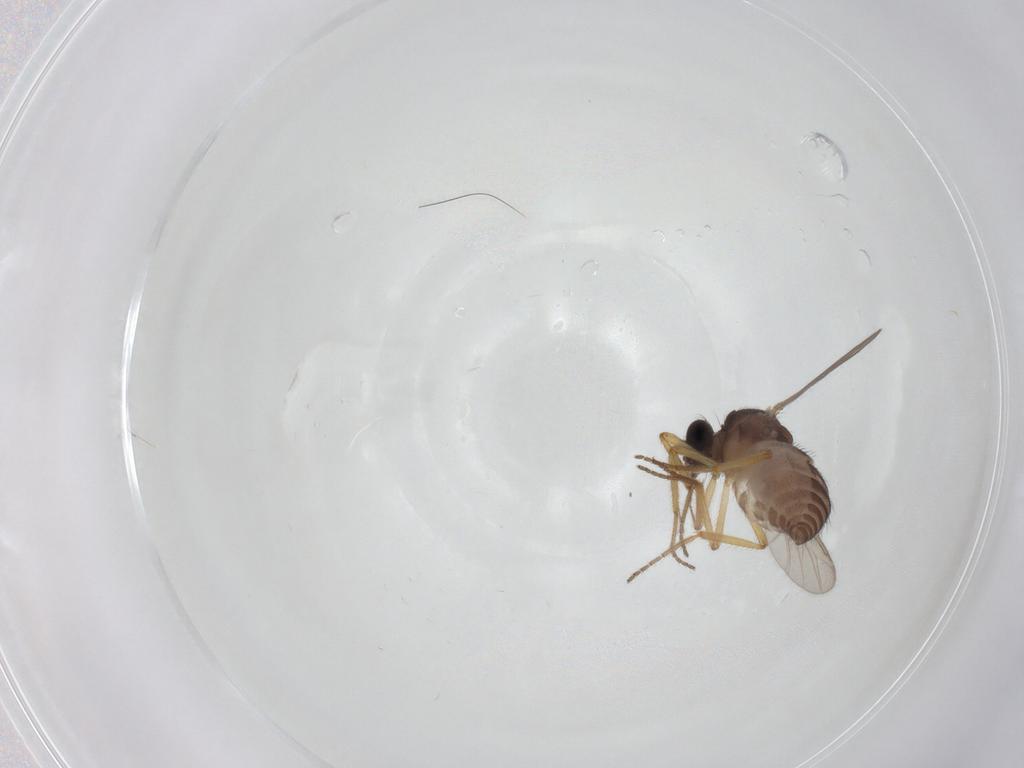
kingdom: Animalia
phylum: Arthropoda
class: Insecta
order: Diptera
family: Ceratopogonidae
